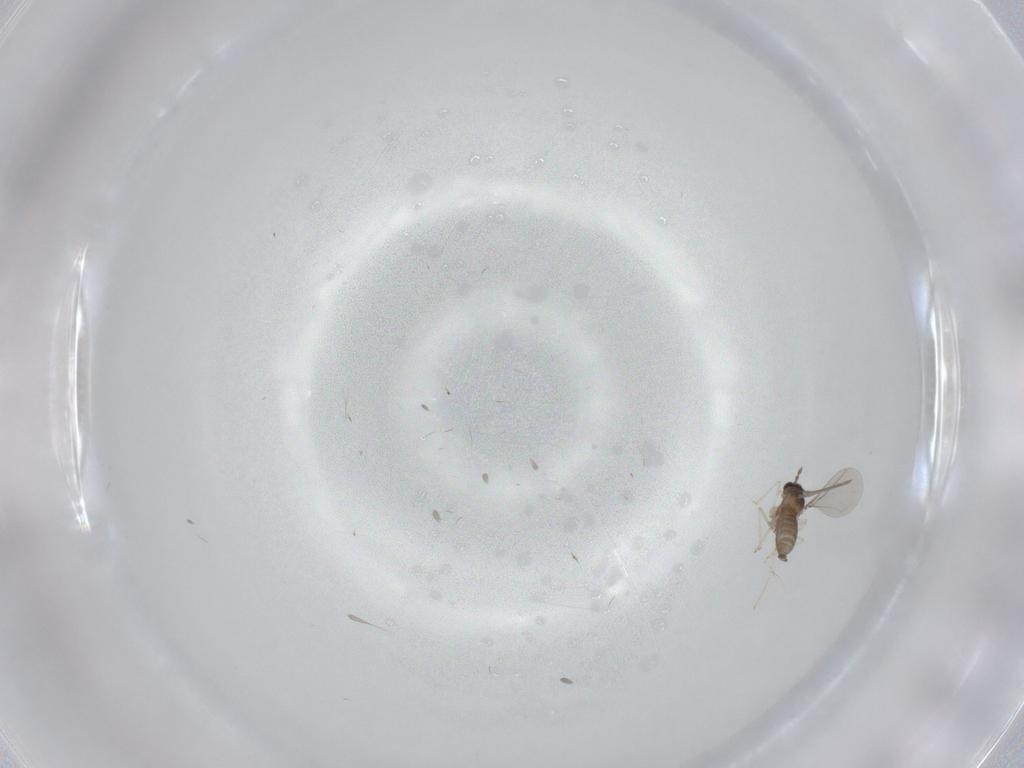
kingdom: Animalia
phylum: Arthropoda
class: Insecta
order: Diptera
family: Cecidomyiidae
